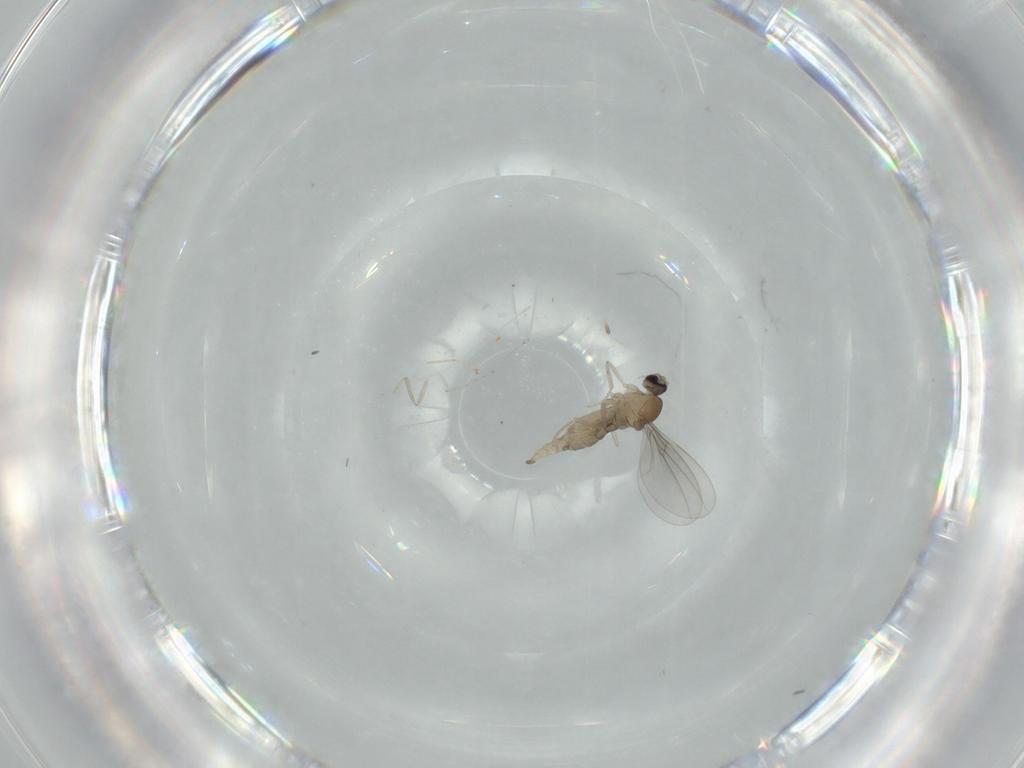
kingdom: Animalia
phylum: Arthropoda
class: Insecta
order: Diptera
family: Cecidomyiidae
